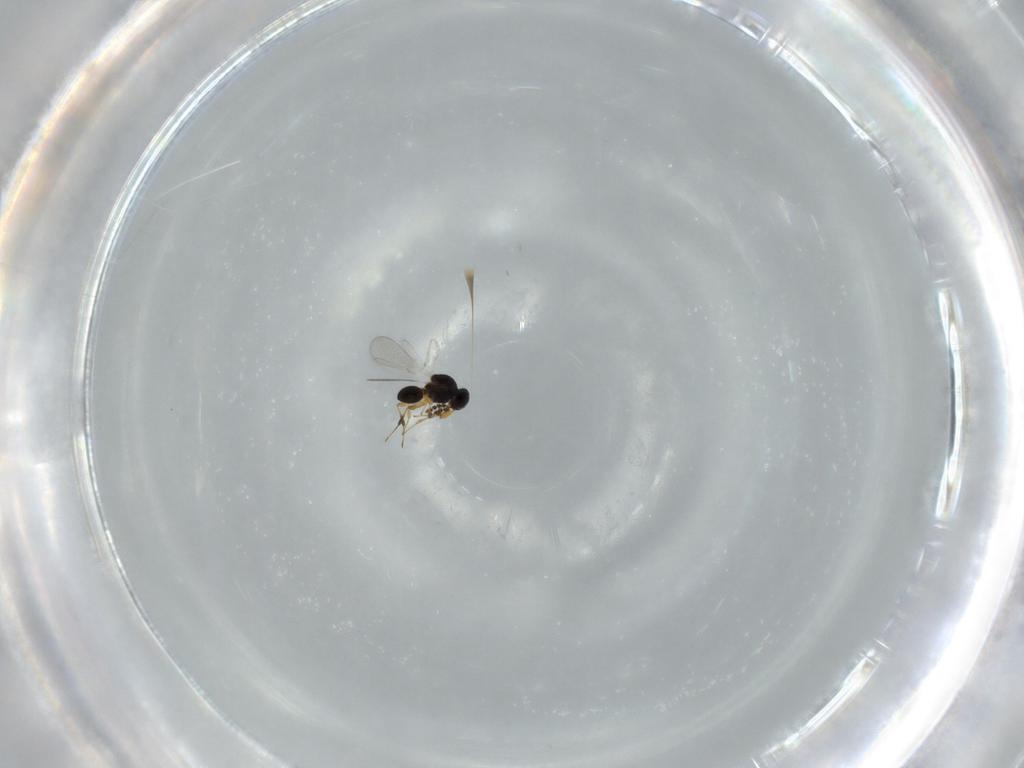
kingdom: Animalia
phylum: Arthropoda
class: Insecta
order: Hymenoptera
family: Platygastridae
